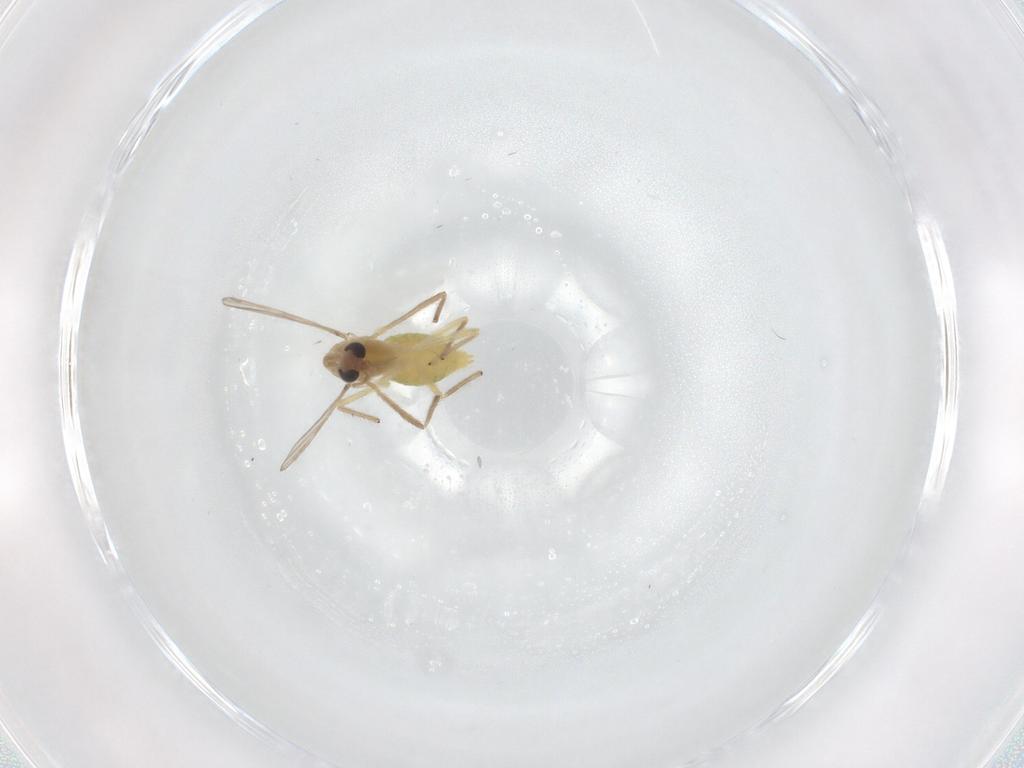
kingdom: Animalia
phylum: Arthropoda
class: Insecta
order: Diptera
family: Chironomidae
